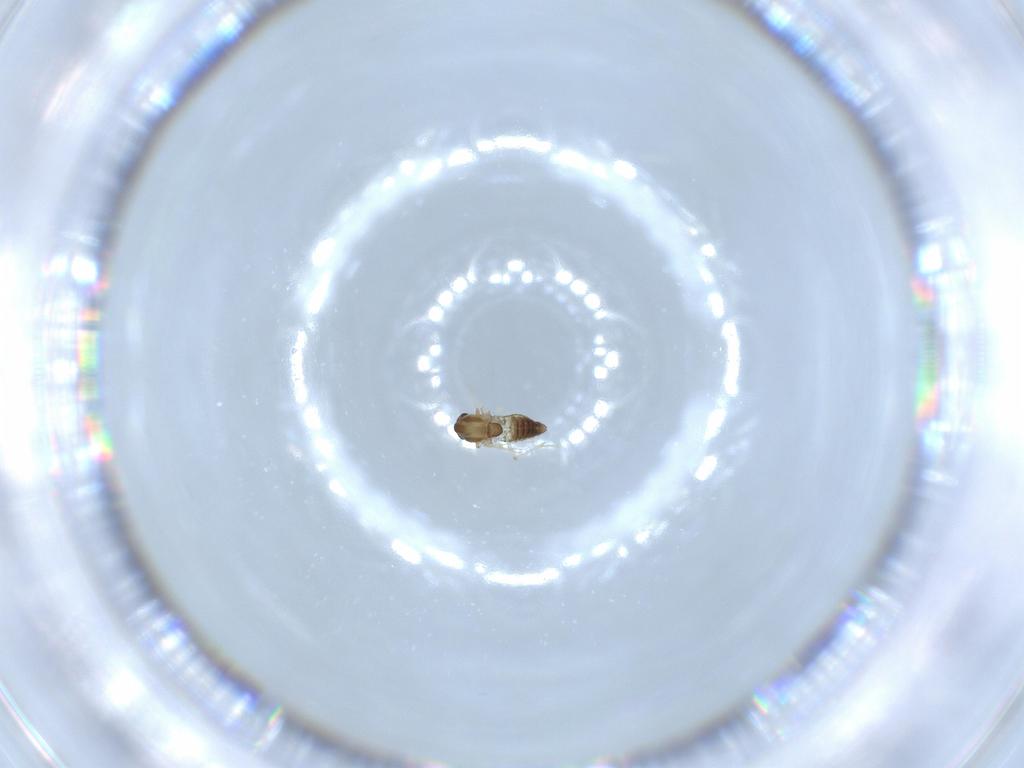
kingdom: Animalia
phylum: Arthropoda
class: Insecta
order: Diptera
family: Chironomidae
